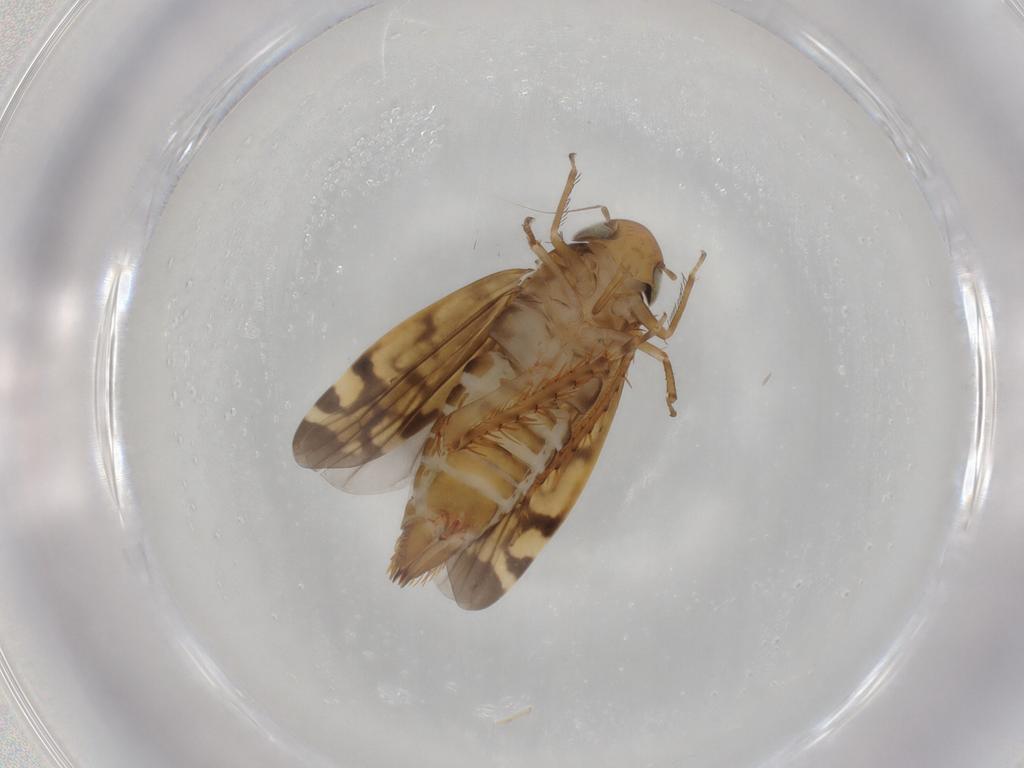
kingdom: Animalia
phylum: Arthropoda
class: Insecta
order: Hemiptera
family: Cicadellidae
